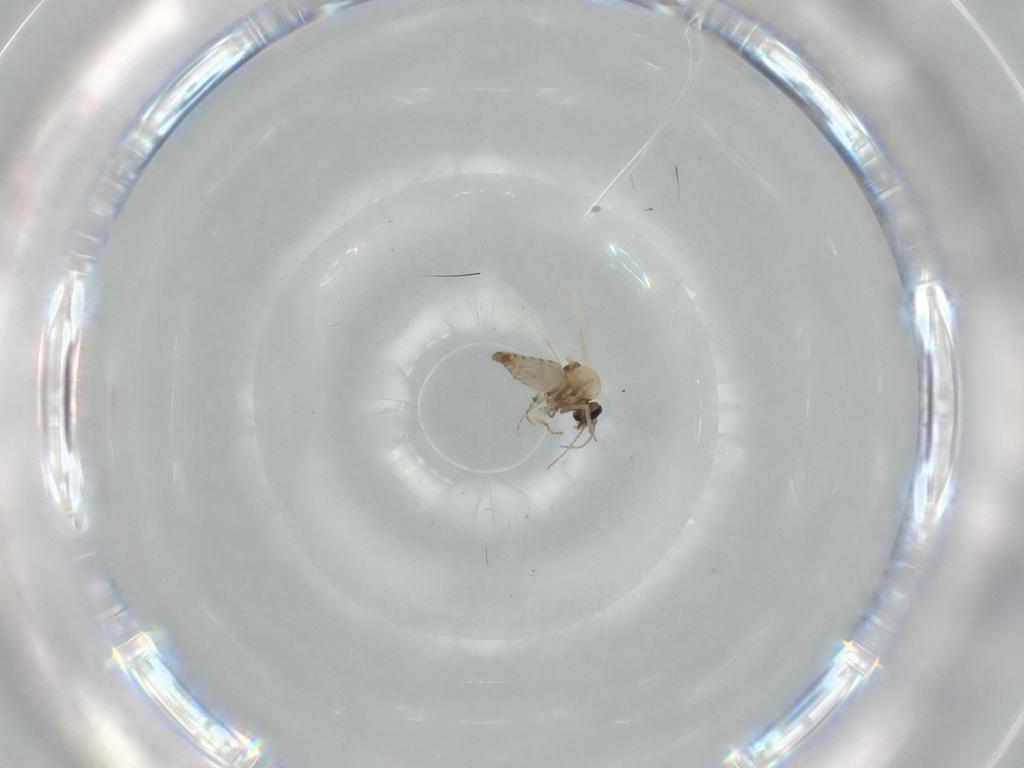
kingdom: Animalia
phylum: Arthropoda
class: Insecta
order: Diptera
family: Ceratopogonidae
